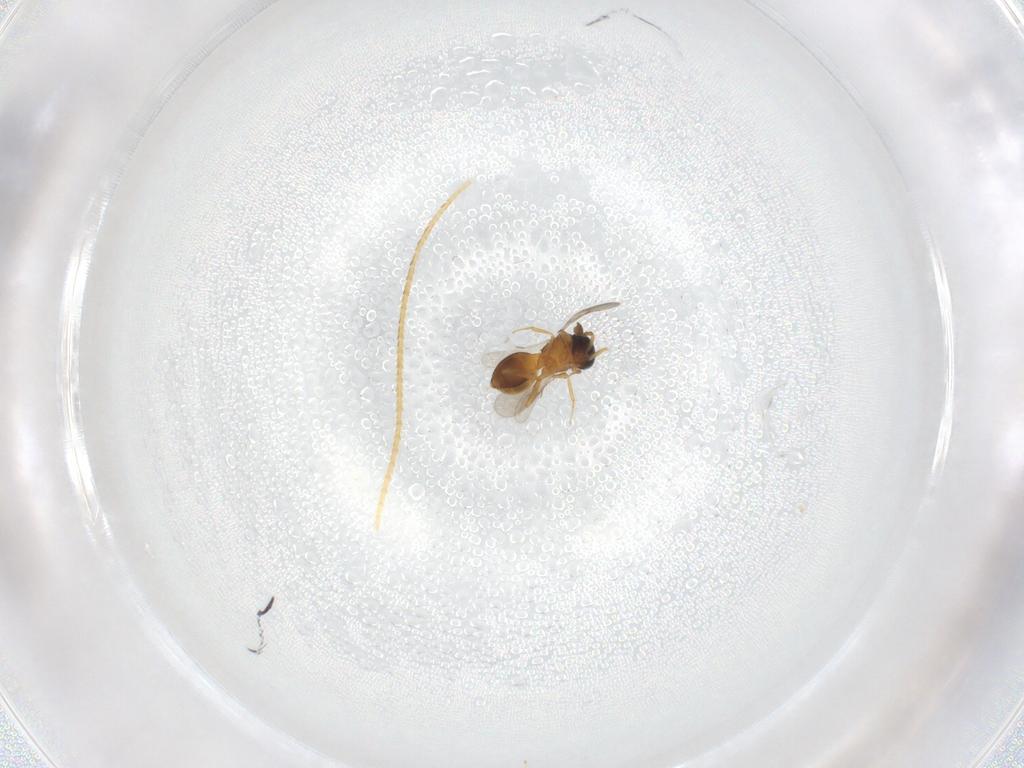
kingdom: Animalia
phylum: Arthropoda
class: Insecta
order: Hymenoptera
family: Scelionidae
